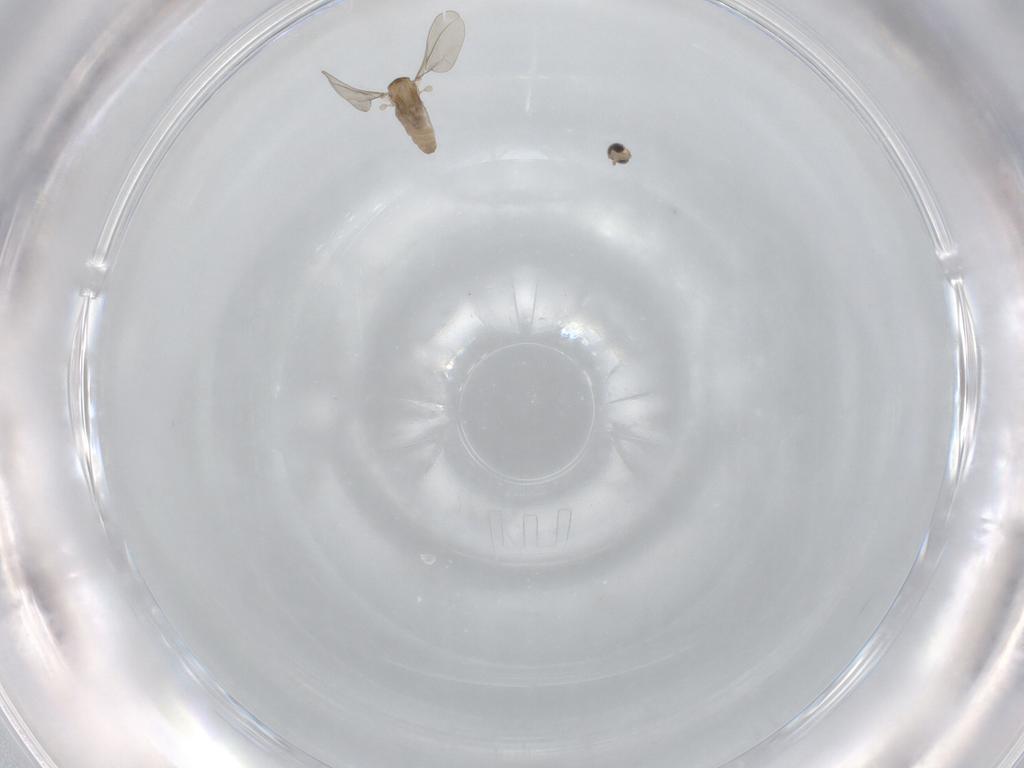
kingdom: Animalia
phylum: Arthropoda
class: Insecta
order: Diptera
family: Cecidomyiidae
